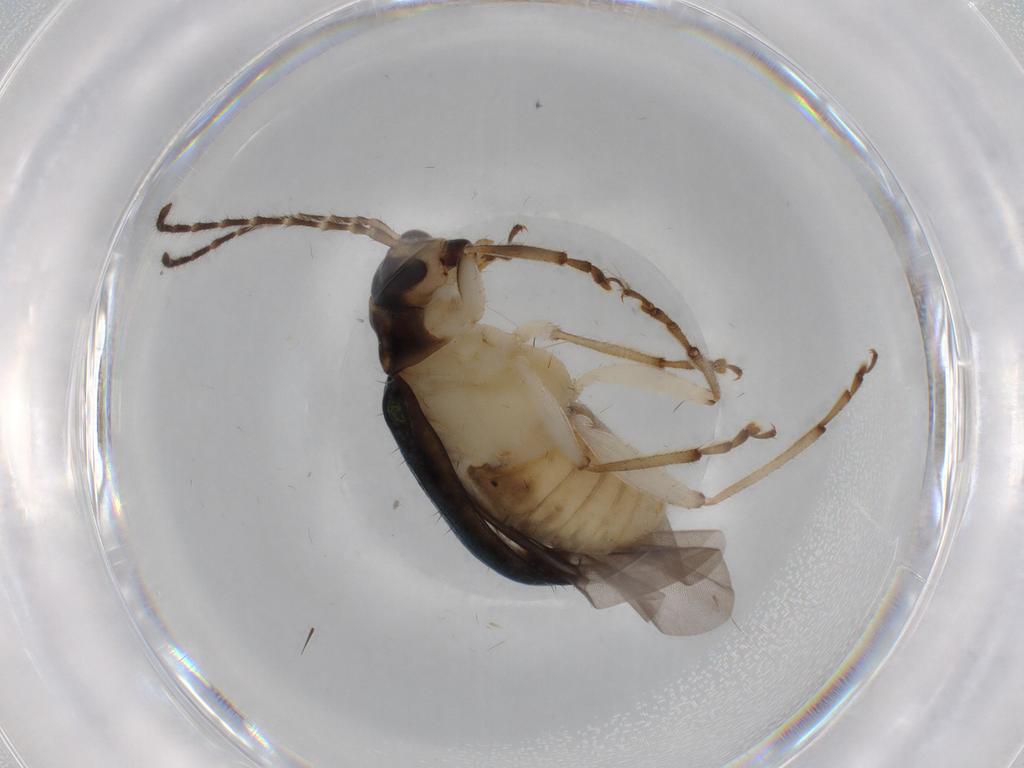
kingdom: Animalia
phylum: Arthropoda
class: Insecta
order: Coleoptera
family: Chrysomelidae
